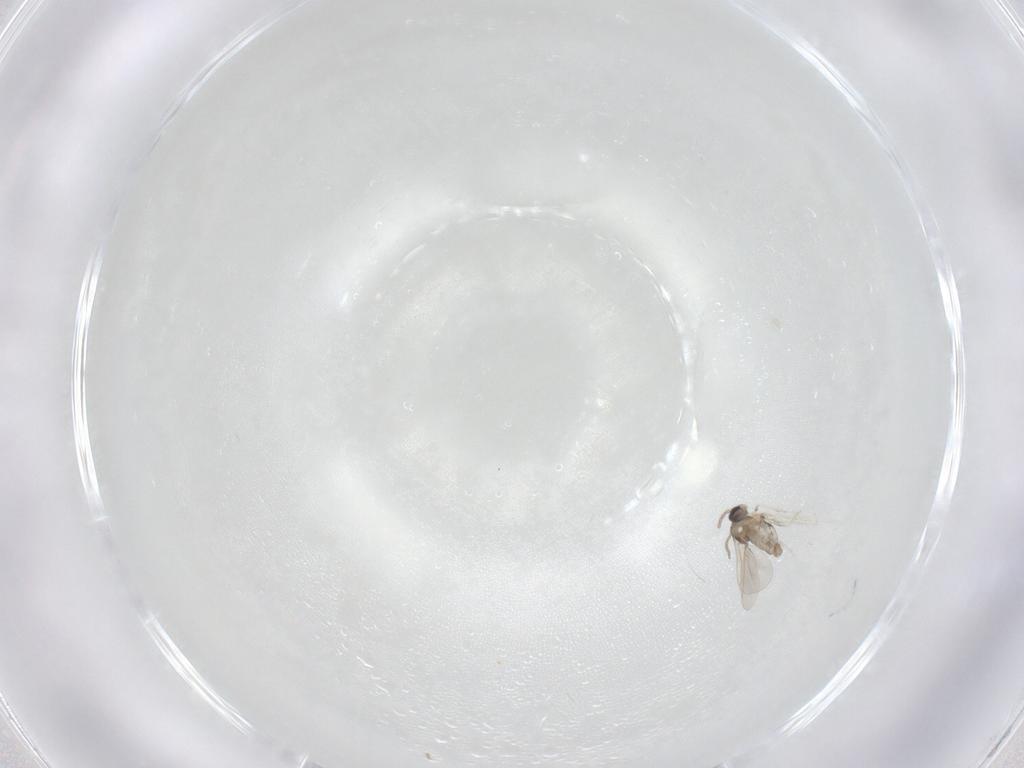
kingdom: Animalia
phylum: Arthropoda
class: Insecta
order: Diptera
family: Cecidomyiidae
